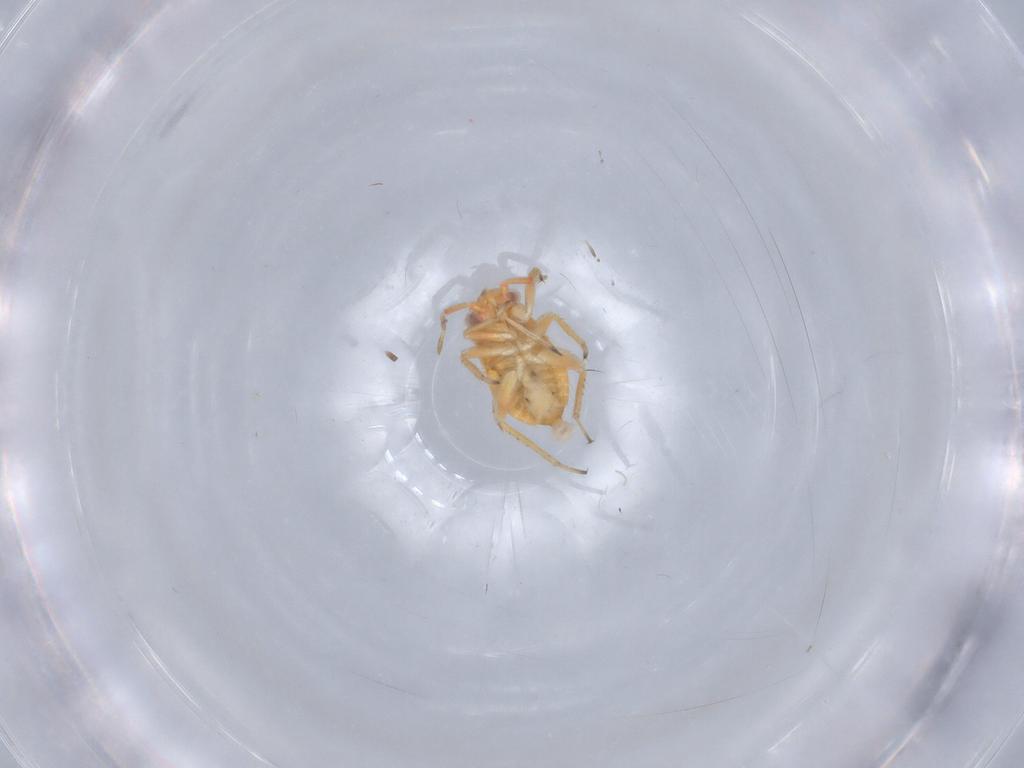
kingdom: Animalia
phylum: Arthropoda
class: Insecta
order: Hemiptera
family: Miridae
